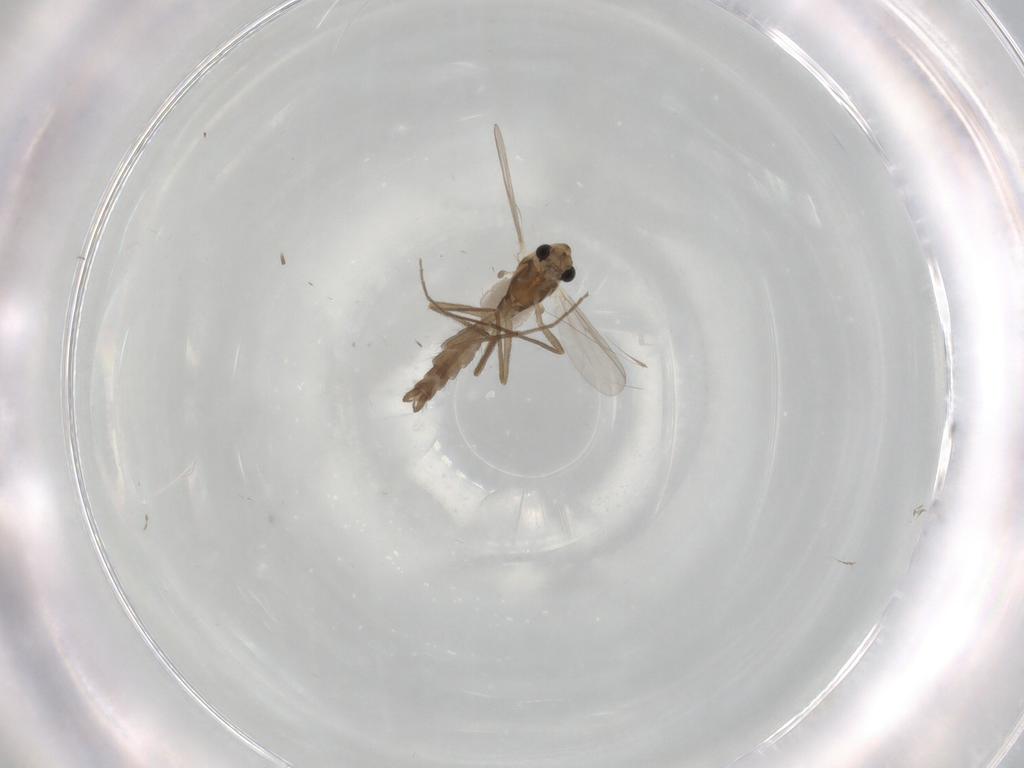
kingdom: Animalia
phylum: Arthropoda
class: Insecta
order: Diptera
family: Chironomidae
